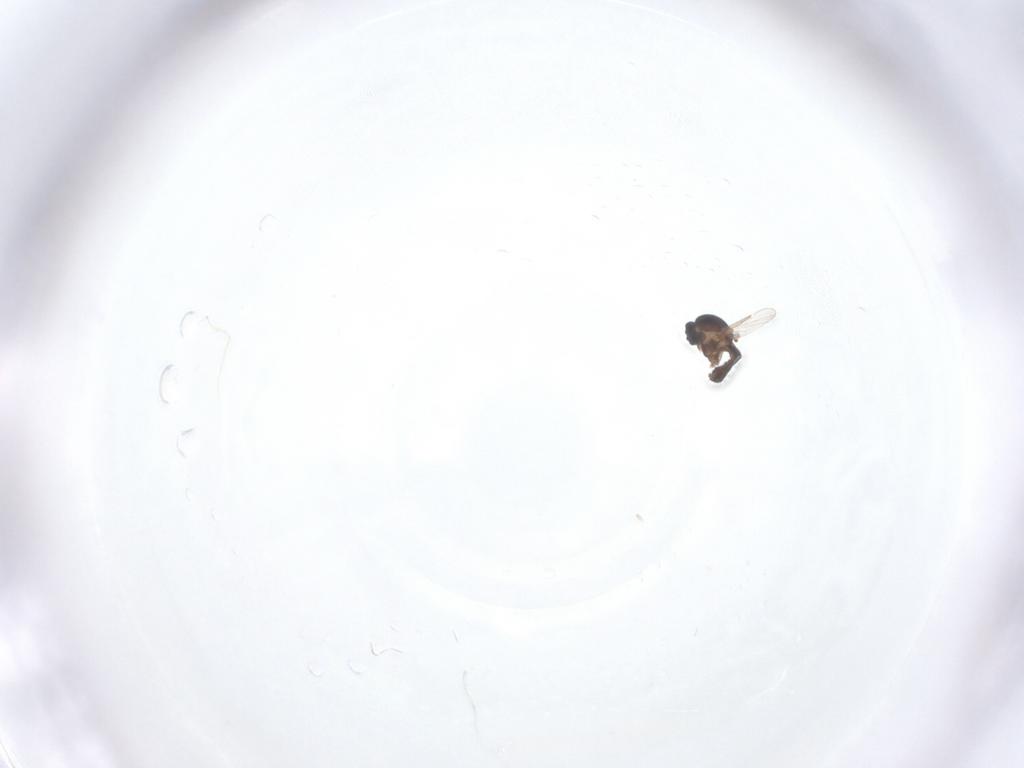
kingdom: Animalia
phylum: Arthropoda
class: Insecta
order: Diptera
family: Ceratopogonidae
